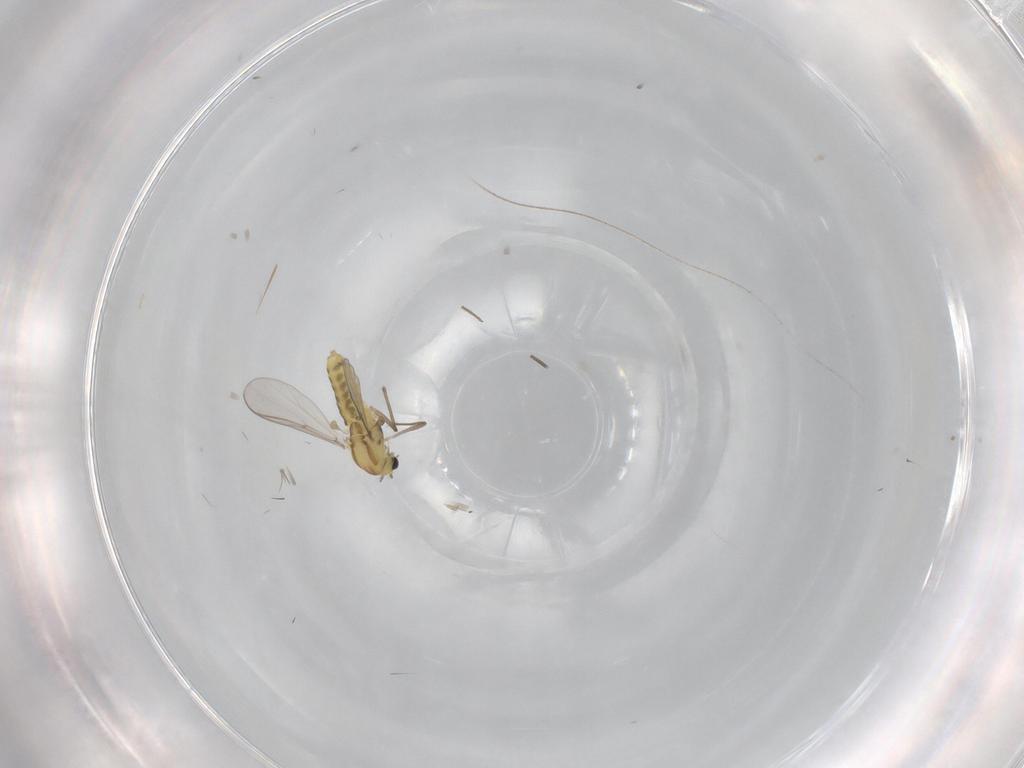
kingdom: Animalia
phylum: Arthropoda
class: Insecta
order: Diptera
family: Chironomidae
